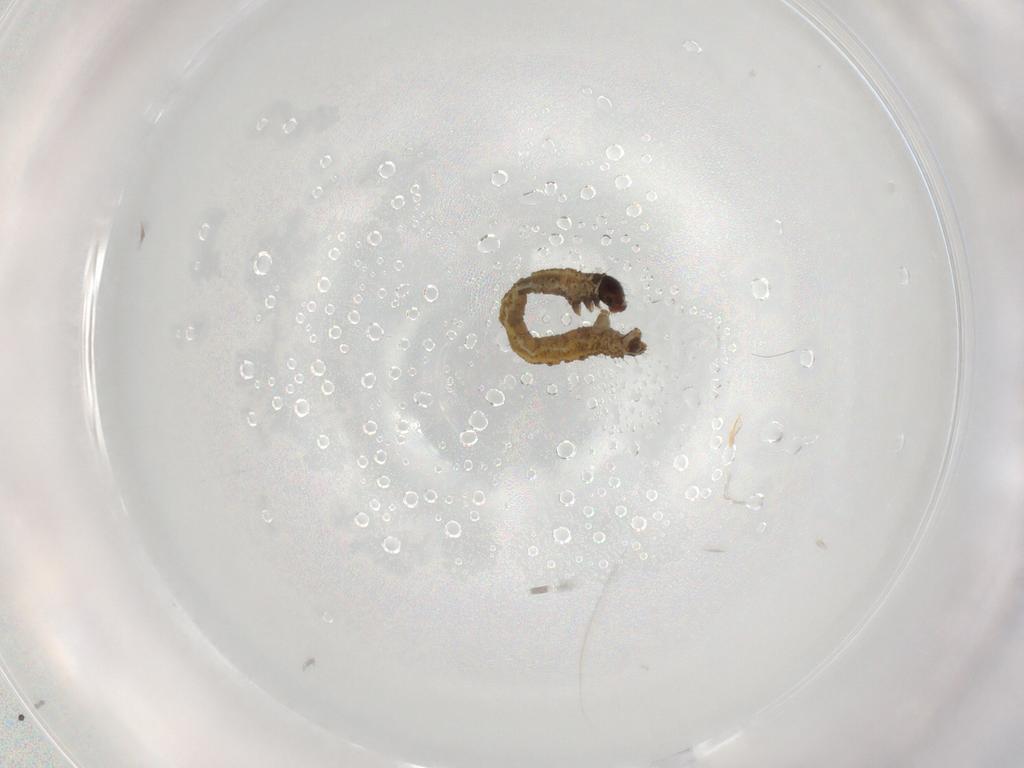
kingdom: Animalia
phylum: Arthropoda
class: Insecta
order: Lepidoptera
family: Geometridae
